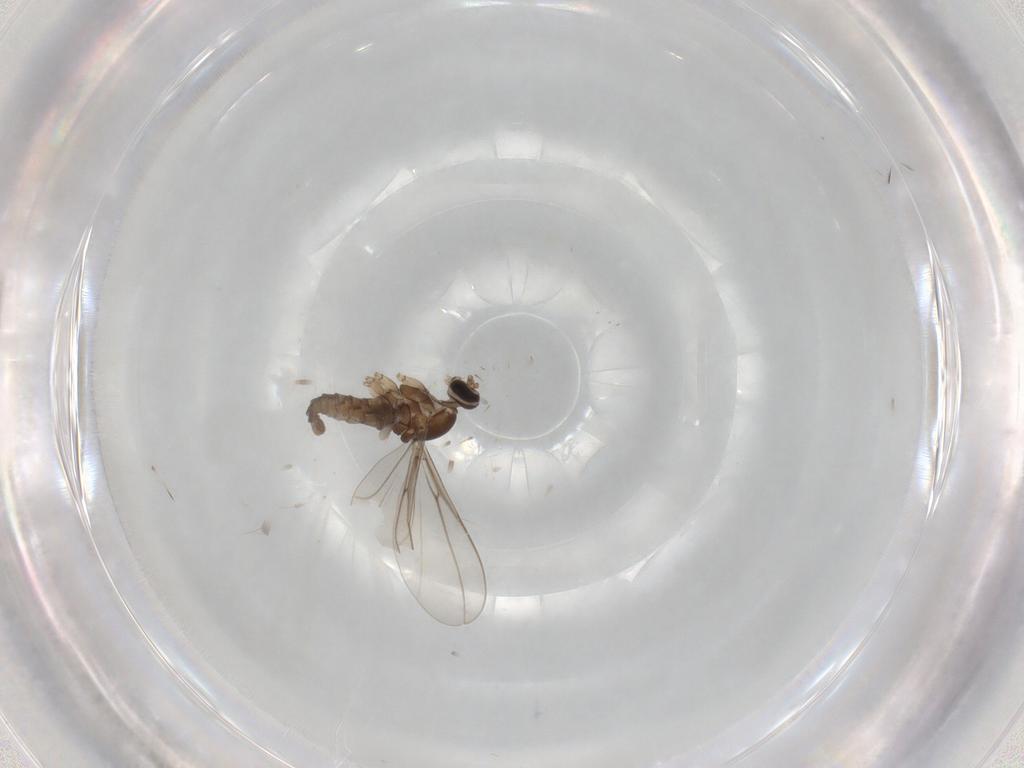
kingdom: Animalia
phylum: Arthropoda
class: Insecta
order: Diptera
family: Cecidomyiidae
